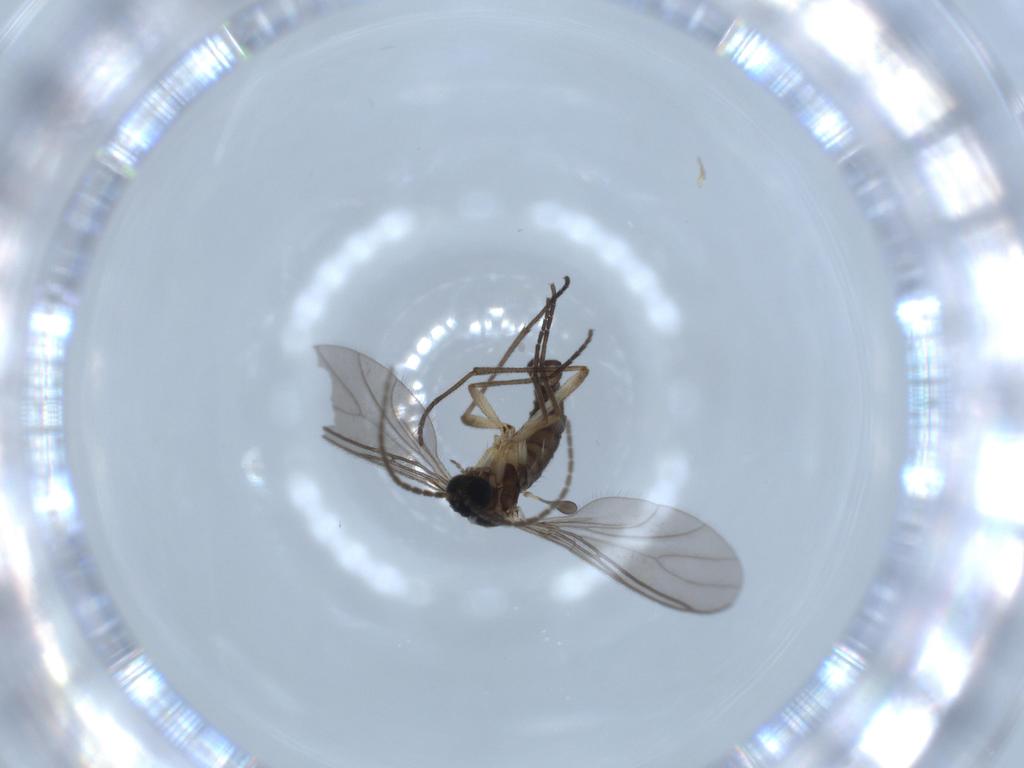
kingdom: Animalia
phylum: Arthropoda
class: Insecta
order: Diptera
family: Sciaridae
